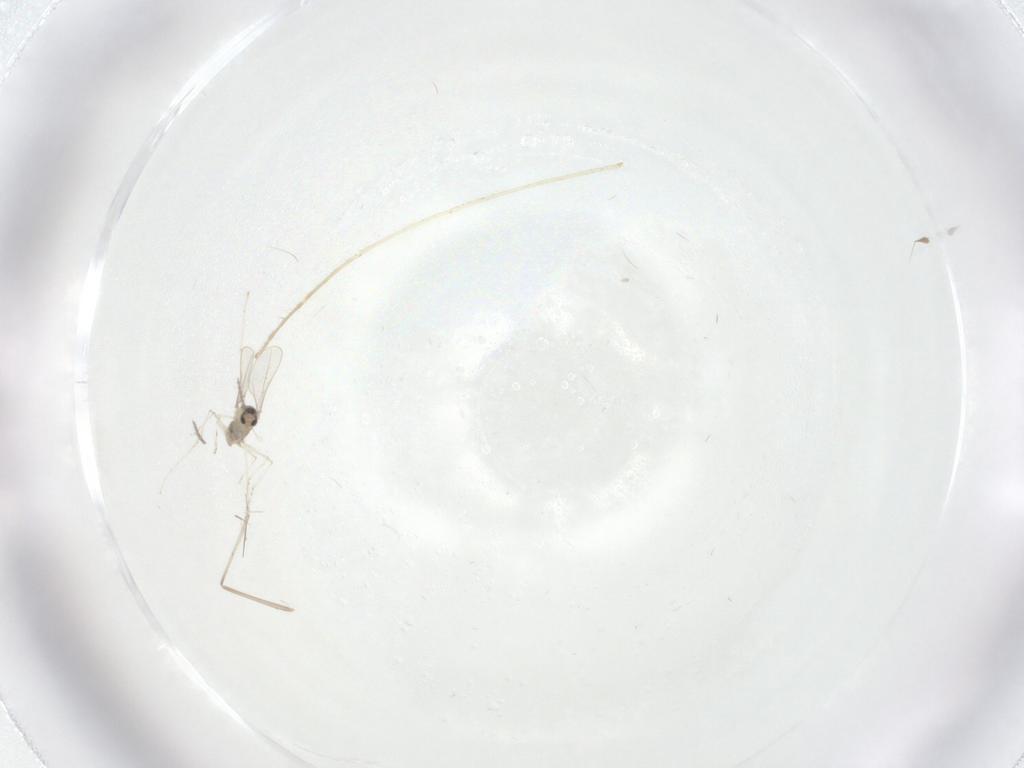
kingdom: Animalia
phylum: Arthropoda
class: Insecta
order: Diptera
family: Chironomidae
